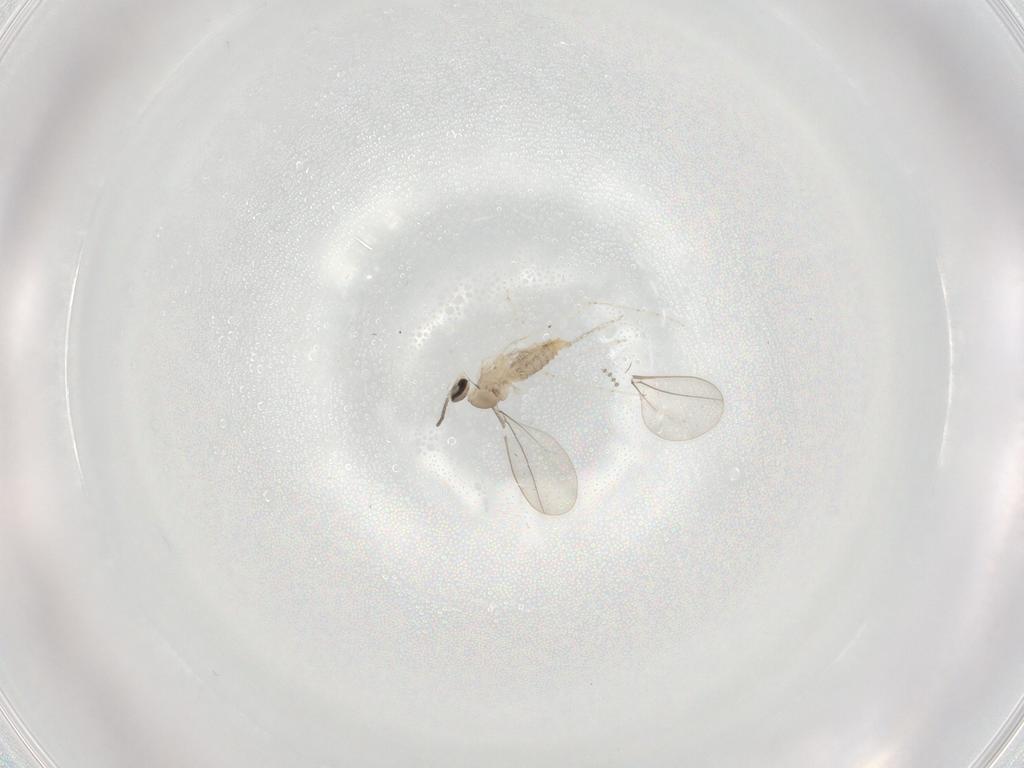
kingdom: Animalia
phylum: Arthropoda
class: Insecta
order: Diptera
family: Cecidomyiidae
